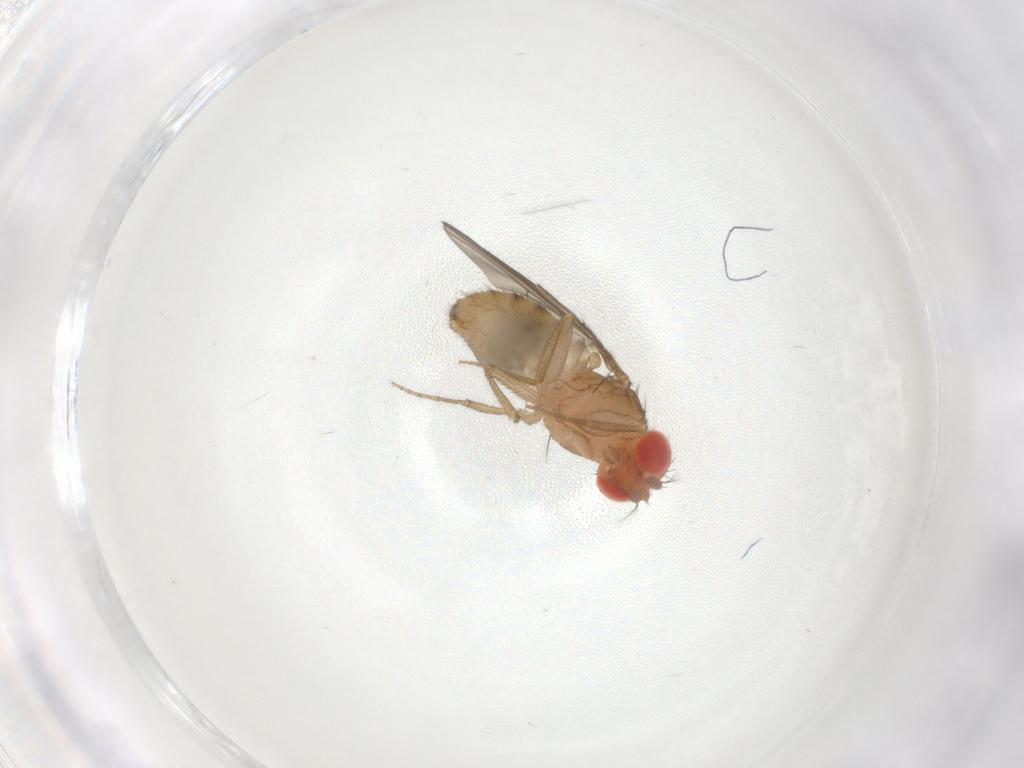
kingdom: Animalia
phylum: Arthropoda
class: Insecta
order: Diptera
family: Drosophilidae
